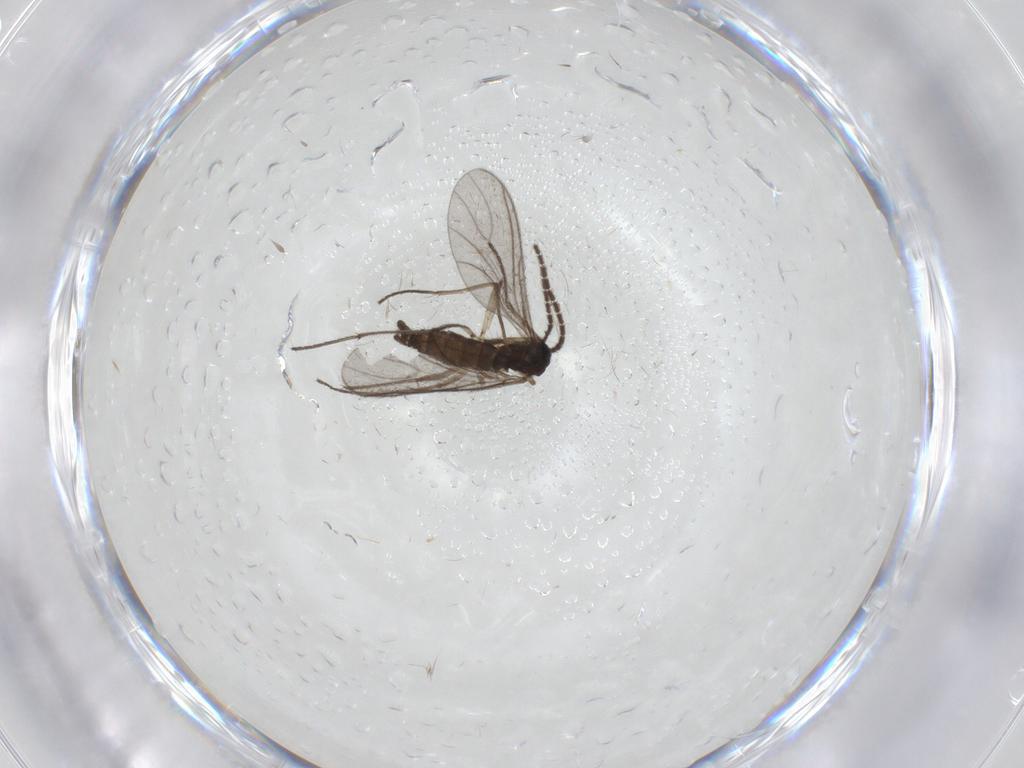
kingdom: Animalia
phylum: Arthropoda
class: Insecta
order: Diptera
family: Sciaridae
